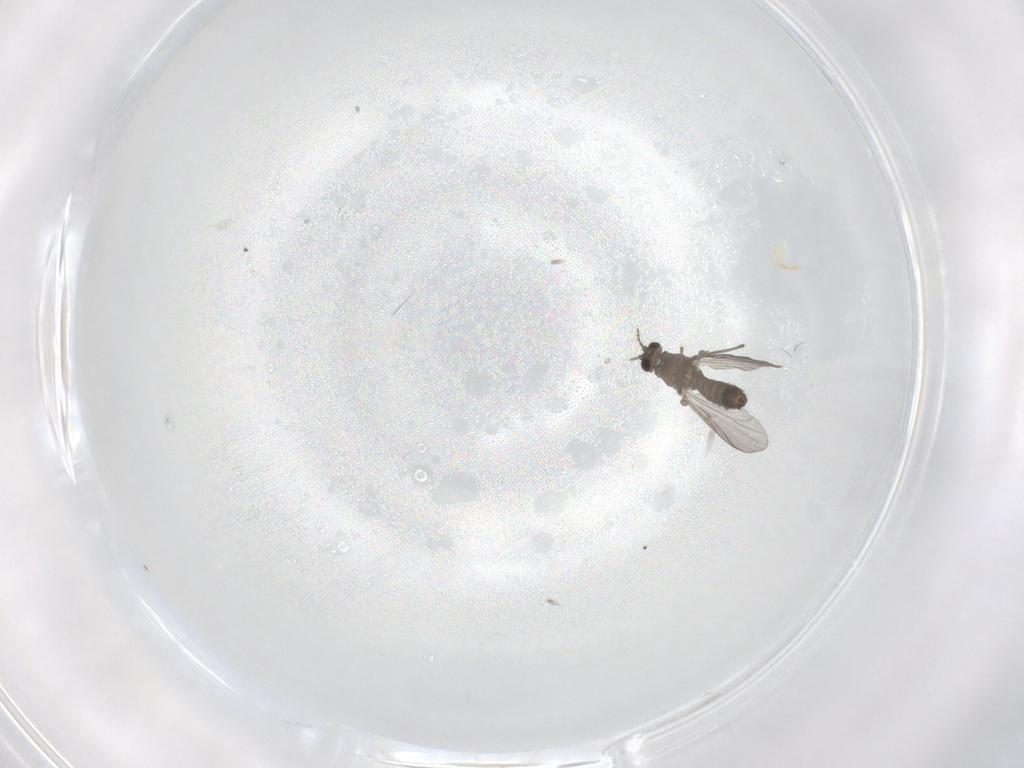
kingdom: Animalia
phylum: Arthropoda
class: Insecta
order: Diptera
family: Chironomidae
